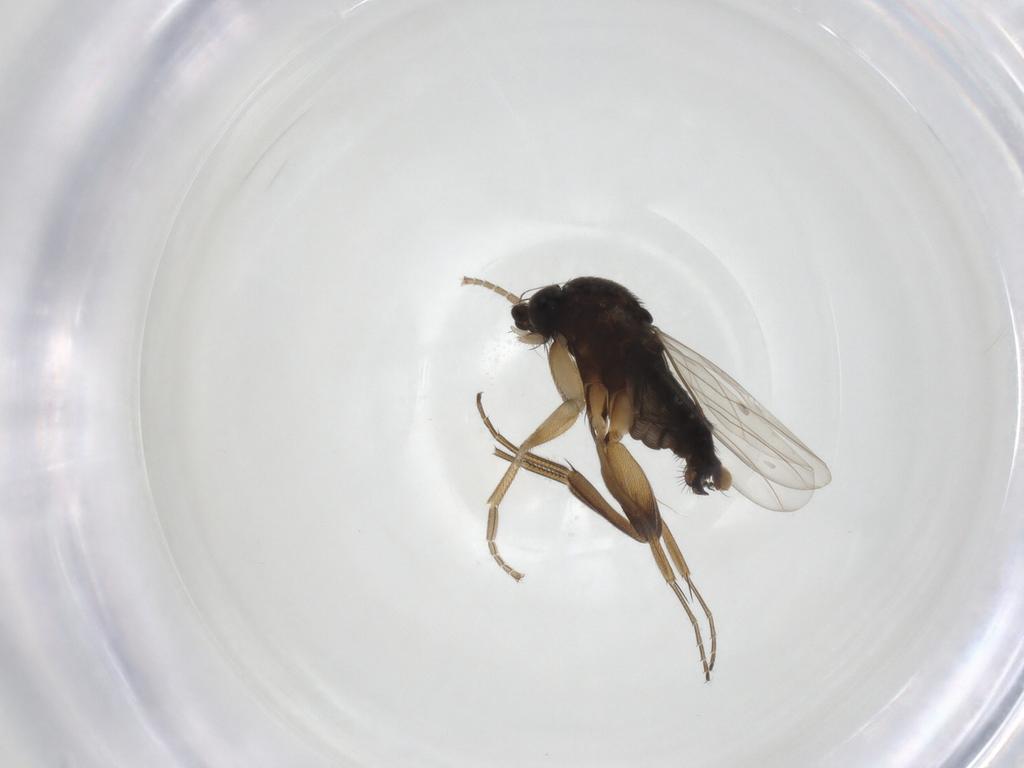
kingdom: Animalia
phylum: Arthropoda
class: Insecta
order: Diptera
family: Phoridae
